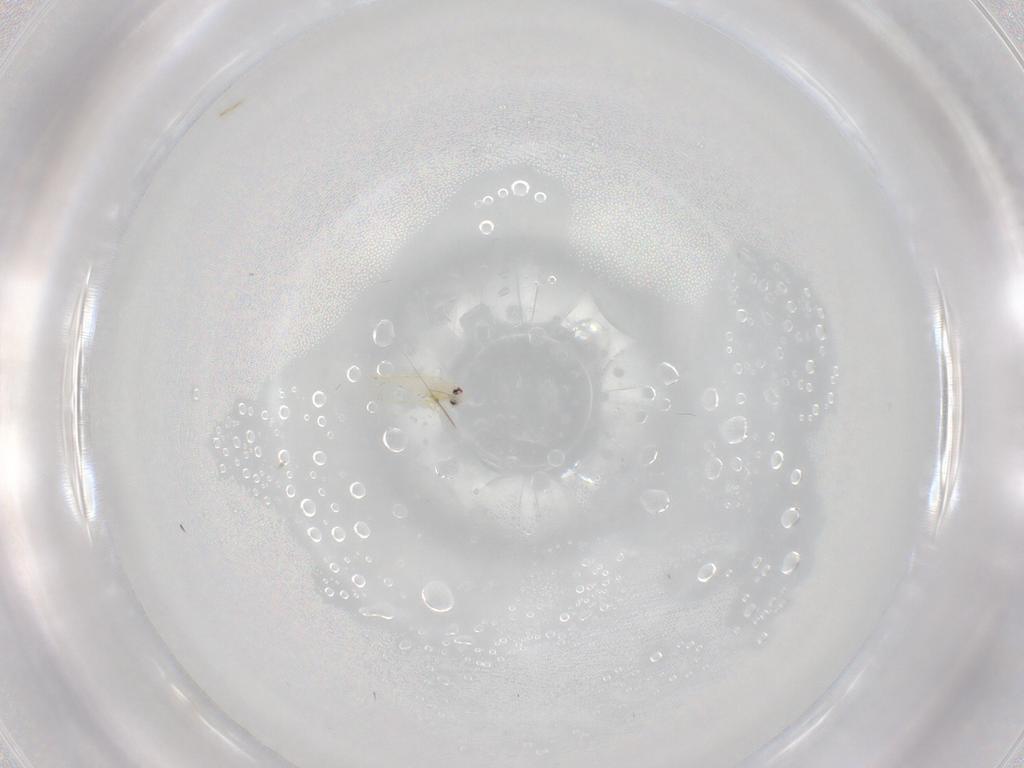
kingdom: Animalia
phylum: Arthropoda
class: Insecta
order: Hemiptera
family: Aleyrodidae
